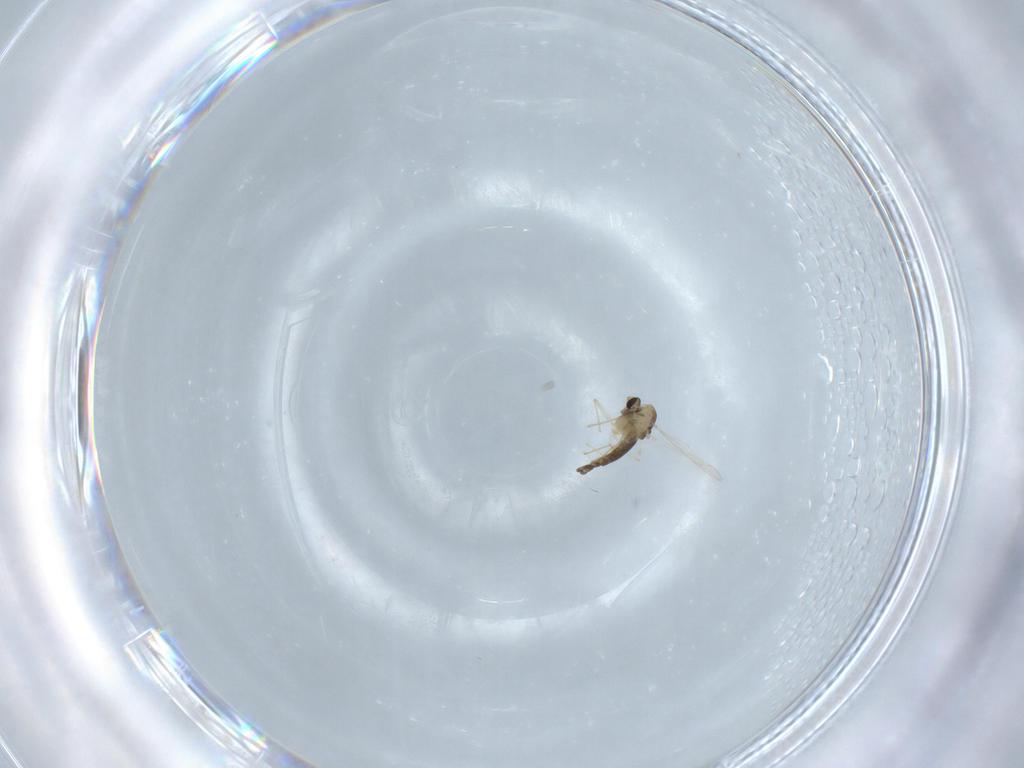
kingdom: Animalia
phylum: Arthropoda
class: Insecta
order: Diptera
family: Chironomidae
